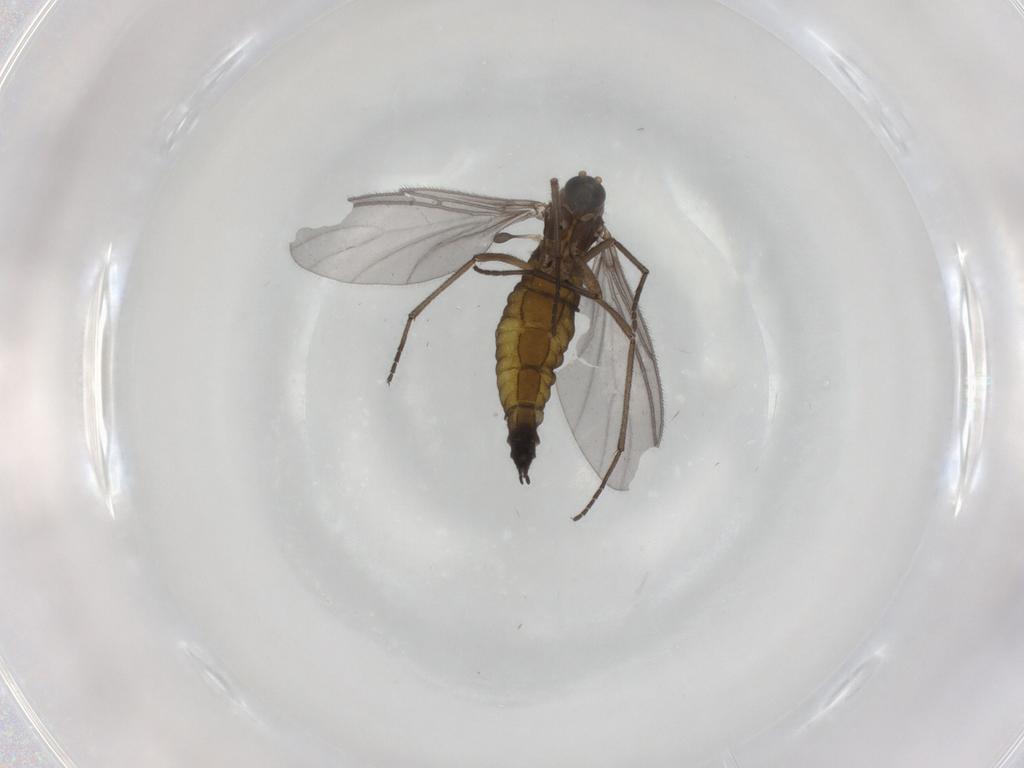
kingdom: Animalia
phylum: Arthropoda
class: Insecta
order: Diptera
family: Sciaridae
